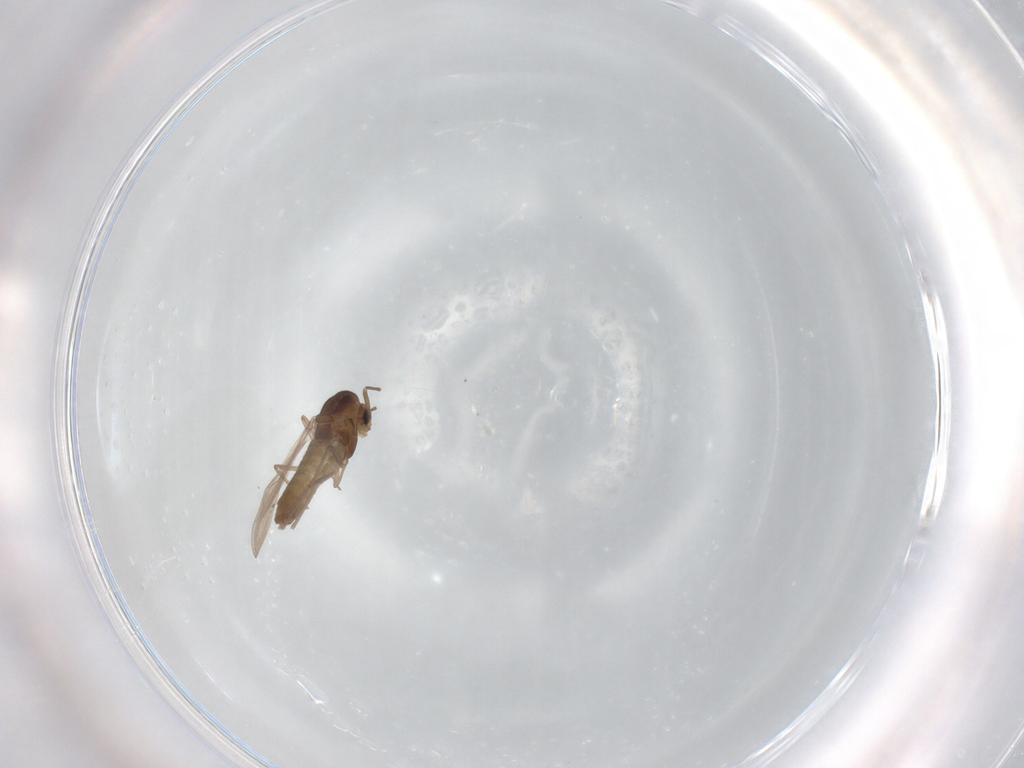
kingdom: Animalia
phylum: Arthropoda
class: Insecta
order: Diptera
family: Chironomidae
